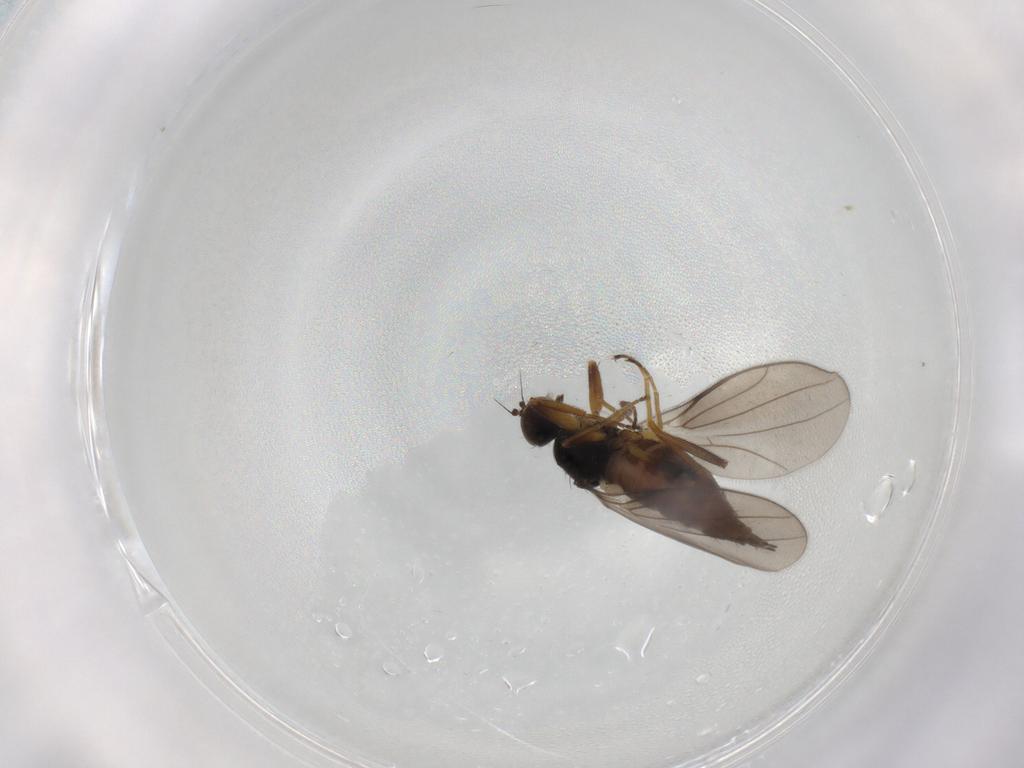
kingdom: Animalia
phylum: Arthropoda
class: Insecta
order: Diptera
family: Hybotidae
